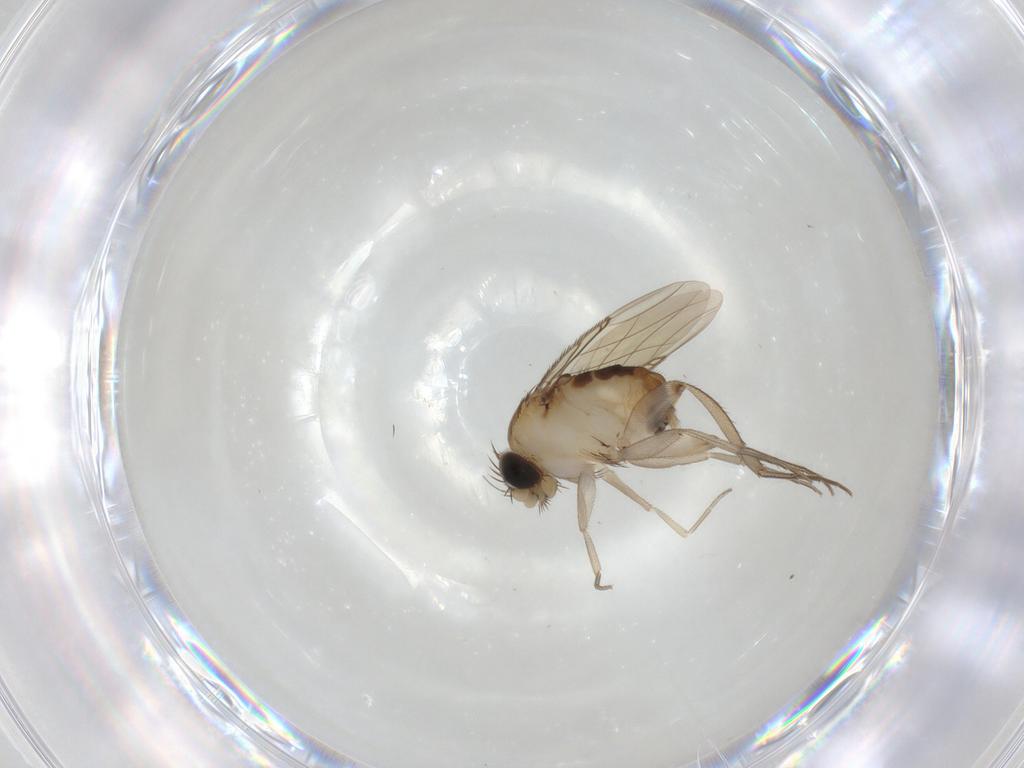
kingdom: Animalia
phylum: Arthropoda
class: Insecta
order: Diptera
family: Phoridae
